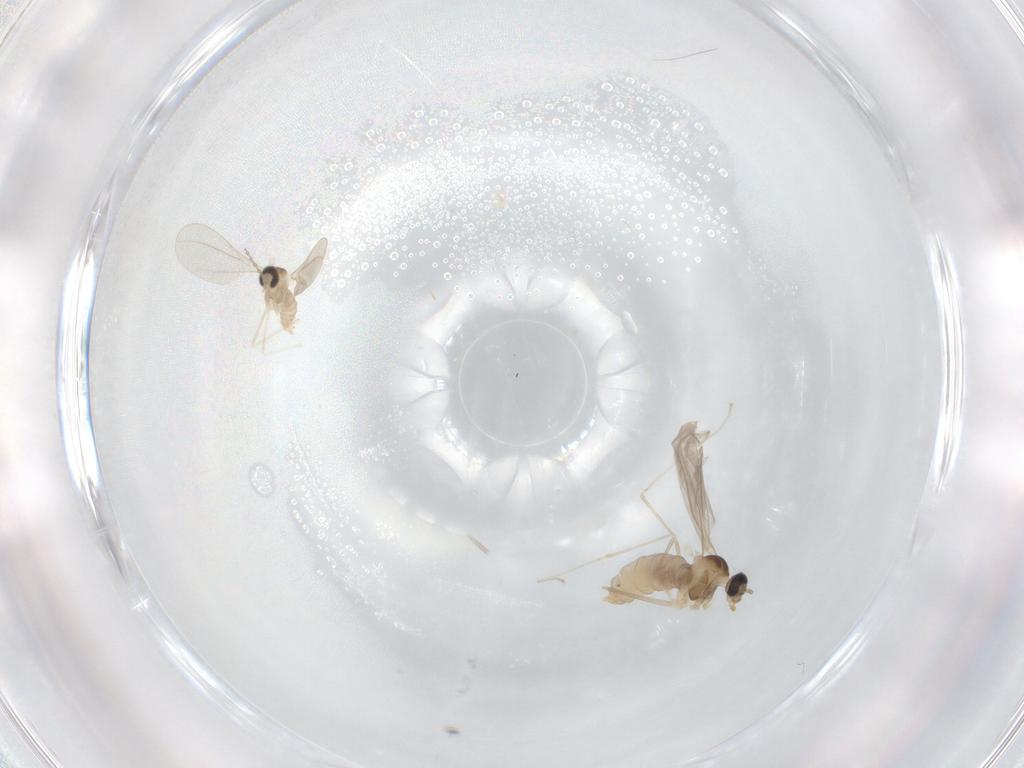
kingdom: Animalia
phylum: Arthropoda
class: Insecta
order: Diptera
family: Cecidomyiidae
